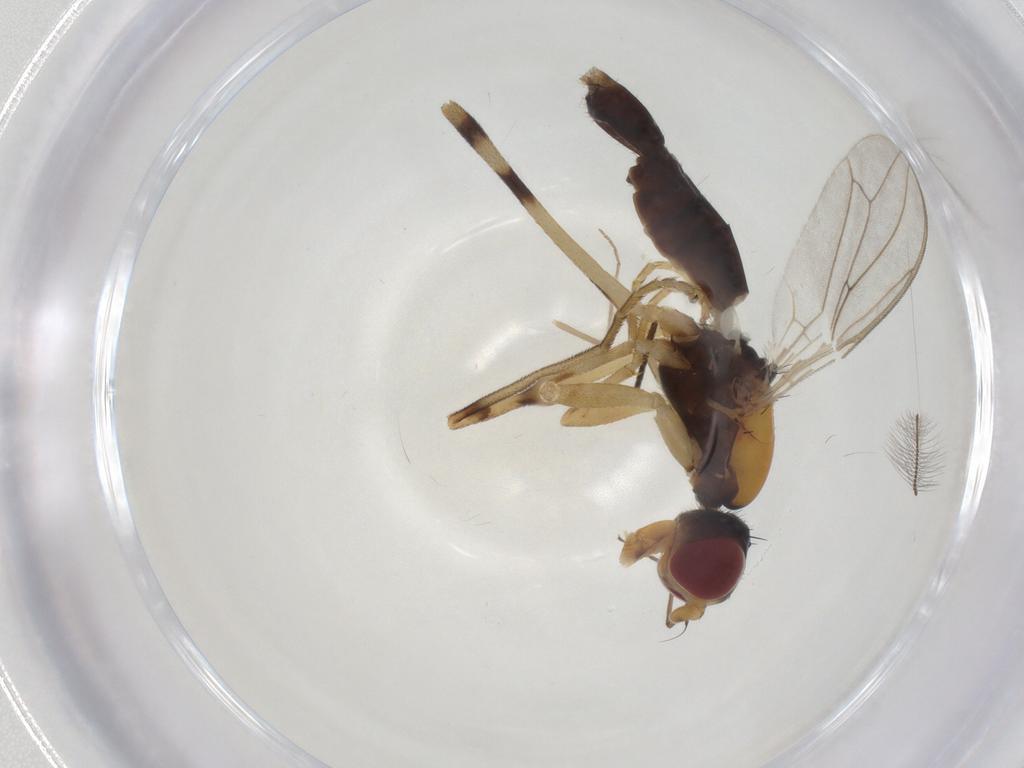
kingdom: Animalia
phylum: Arthropoda
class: Insecta
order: Diptera
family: Micropezidae
